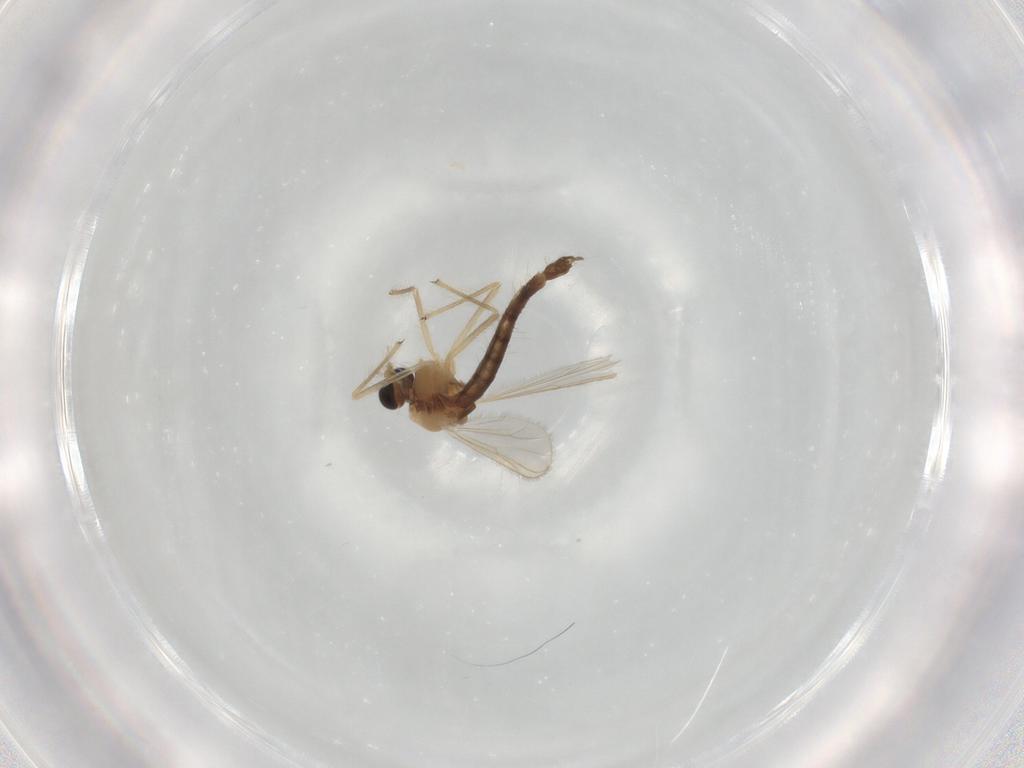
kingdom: Animalia
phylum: Arthropoda
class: Insecta
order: Diptera
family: Chironomidae
